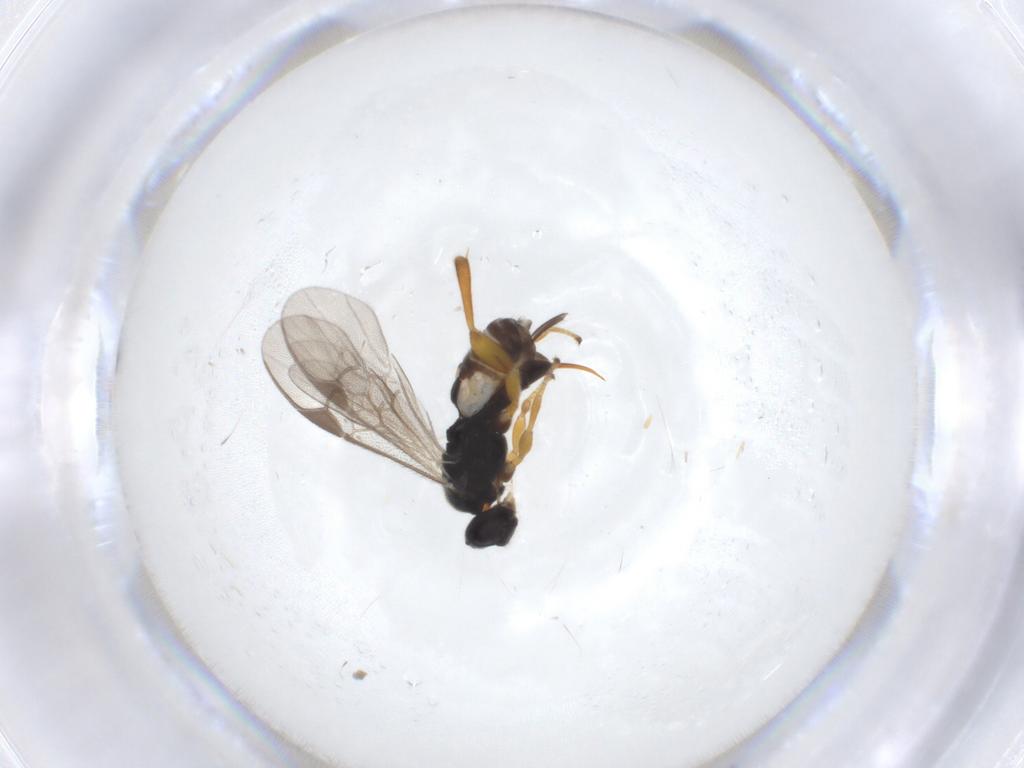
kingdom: Animalia
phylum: Arthropoda
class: Insecta
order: Hymenoptera
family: Braconidae
